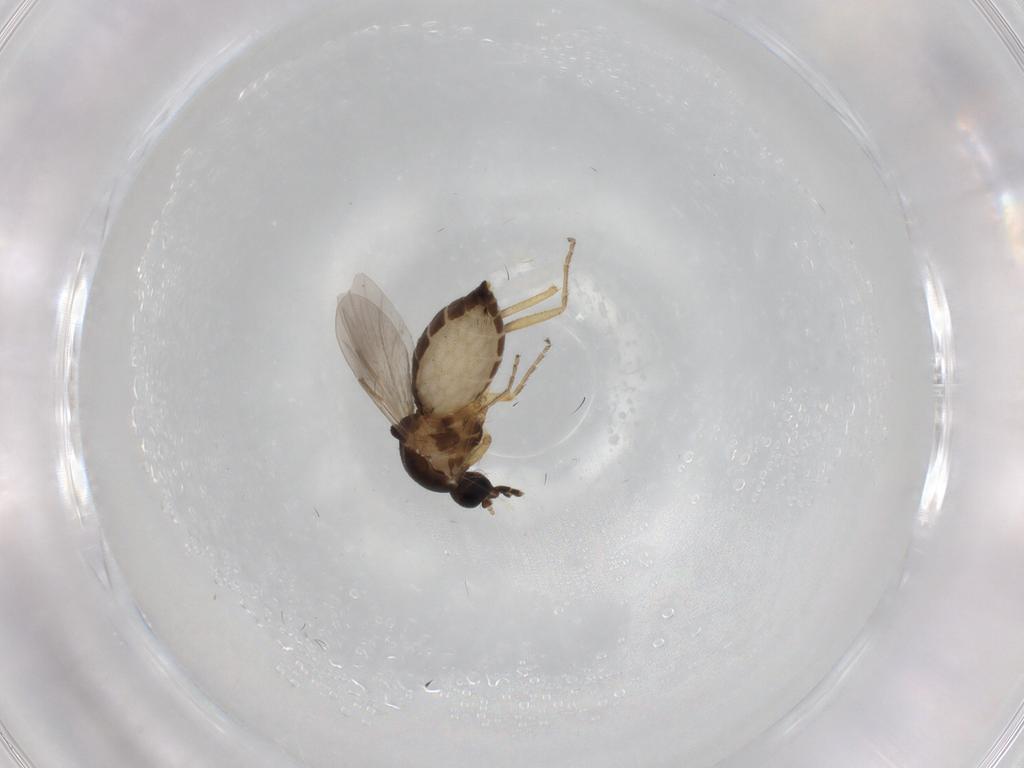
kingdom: Animalia
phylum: Arthropoda
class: Insecta
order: Diptera
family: Ceratopogonidae
